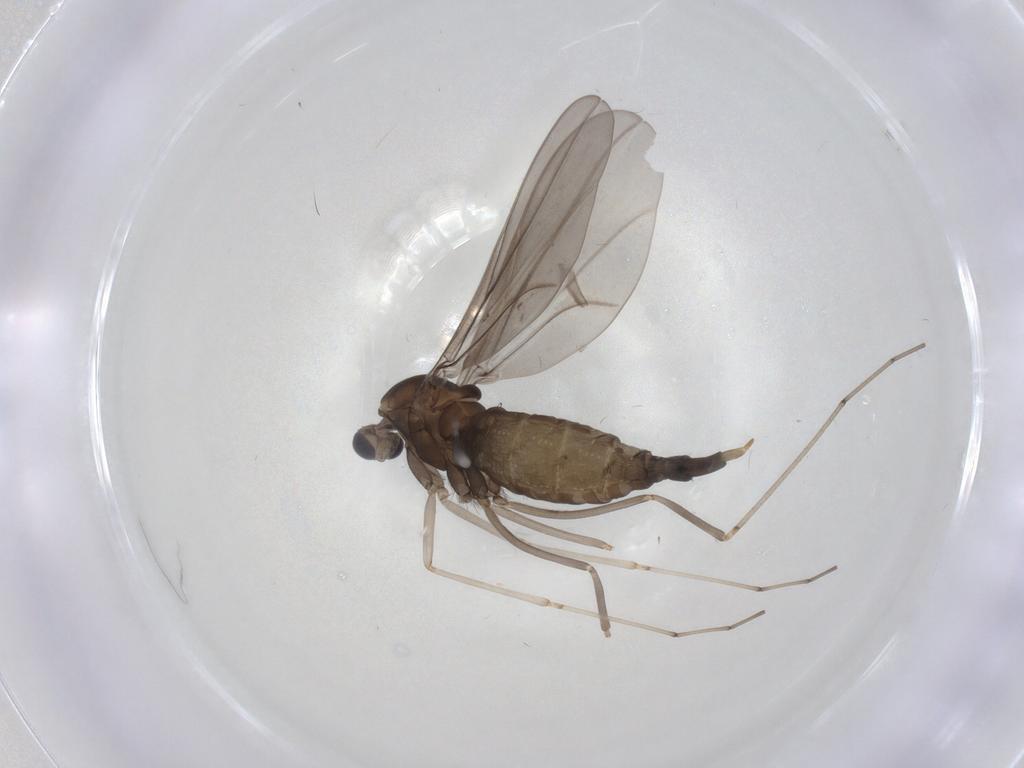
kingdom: Animalia
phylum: Arthropoda
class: Insecta
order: Diptera
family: Cecidomyiidae
